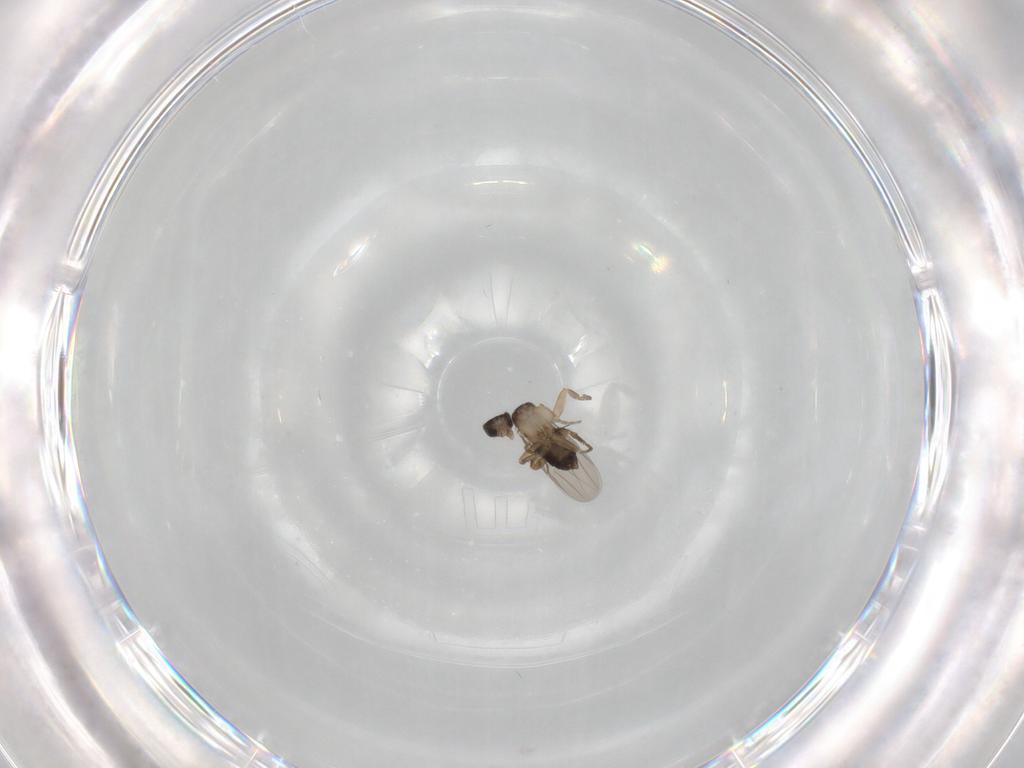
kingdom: Animalia
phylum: Arthropoda
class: Insecta
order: Diptera
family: Phoridae
